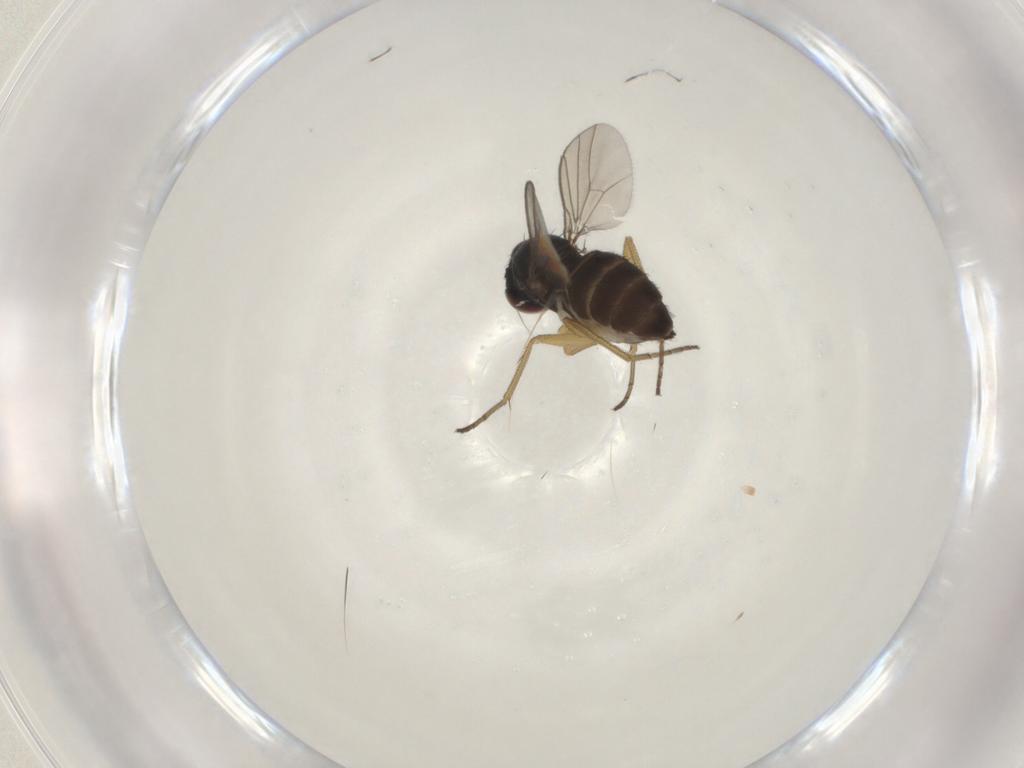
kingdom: Animalia
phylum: Arthropoda
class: Insecta
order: Diptera
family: Dolichopodidae
